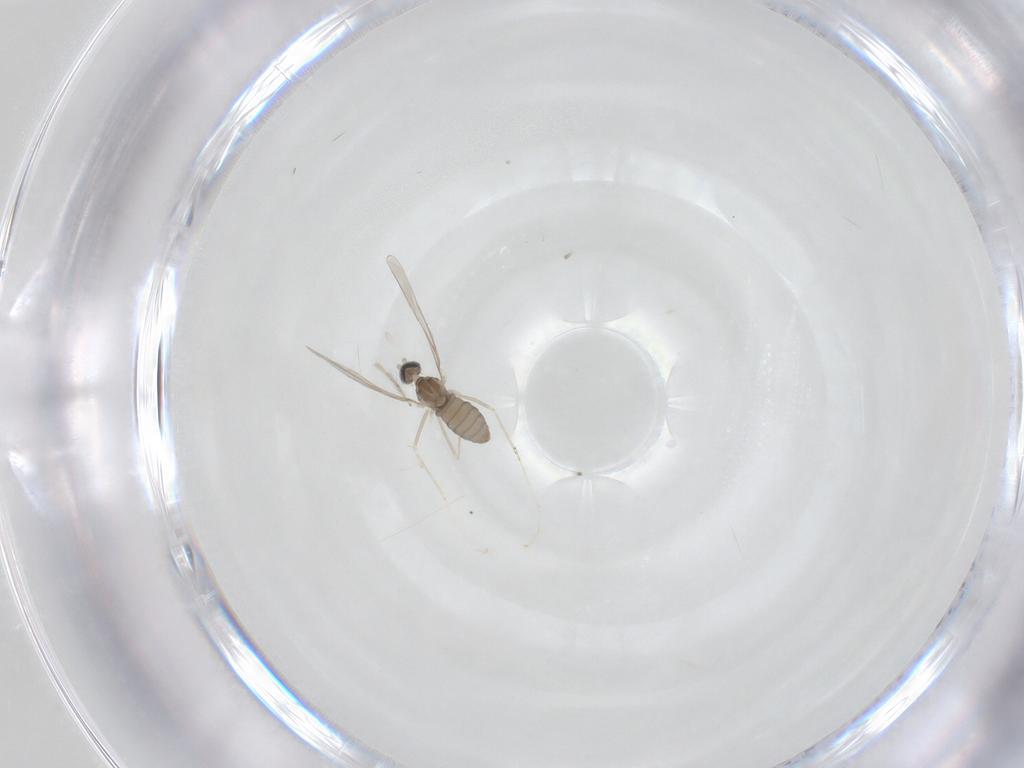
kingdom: Animalia
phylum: Arthropoda
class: Insecta
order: Diptera
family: Cecidomyiidae
